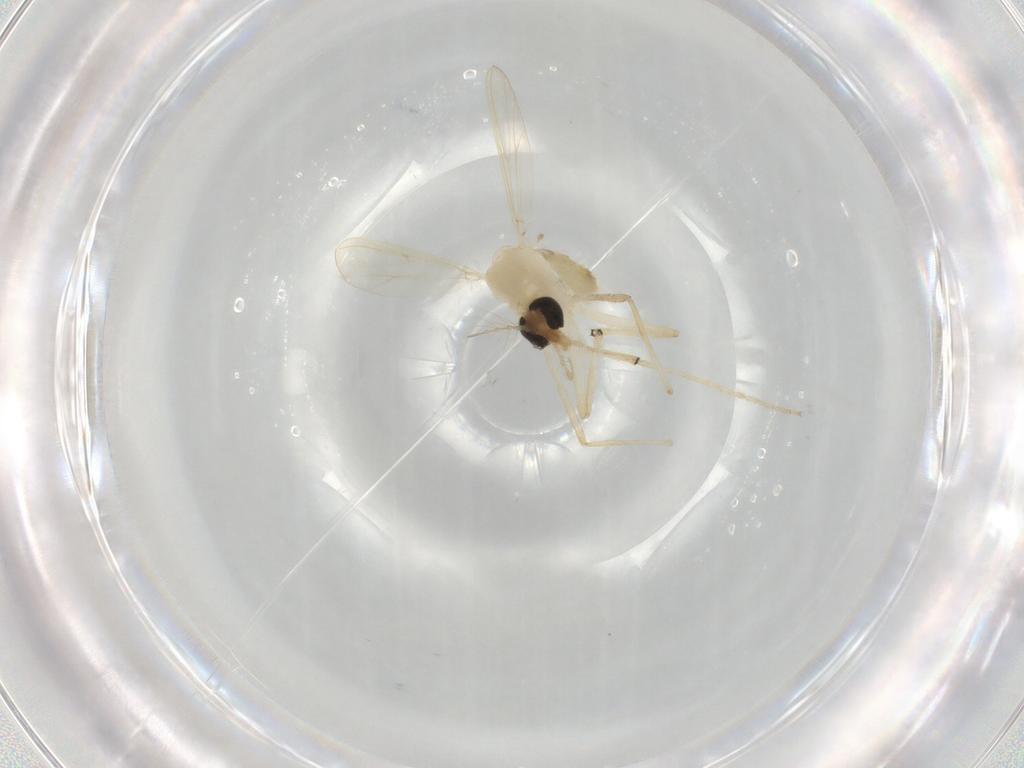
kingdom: Animalia
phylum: Arthropoda
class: Insecta
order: Diptera
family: Chironomidae
